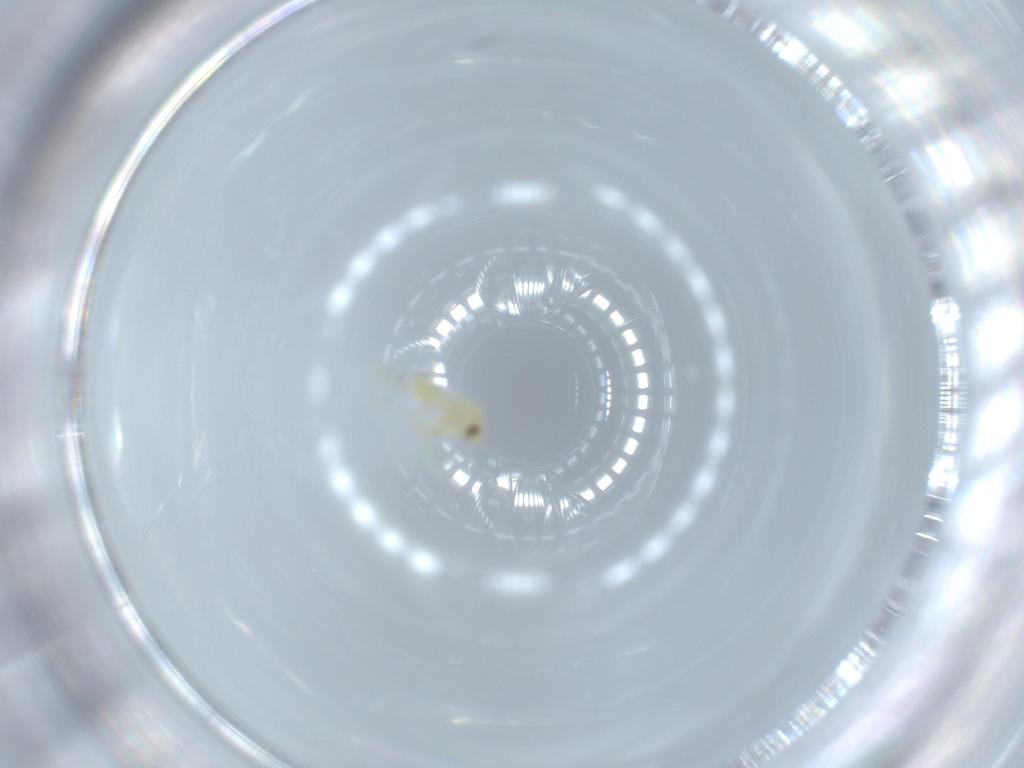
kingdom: Animalia
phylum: Arthropoda
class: Insecta
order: Hemiptera
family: Aleyrodidae
